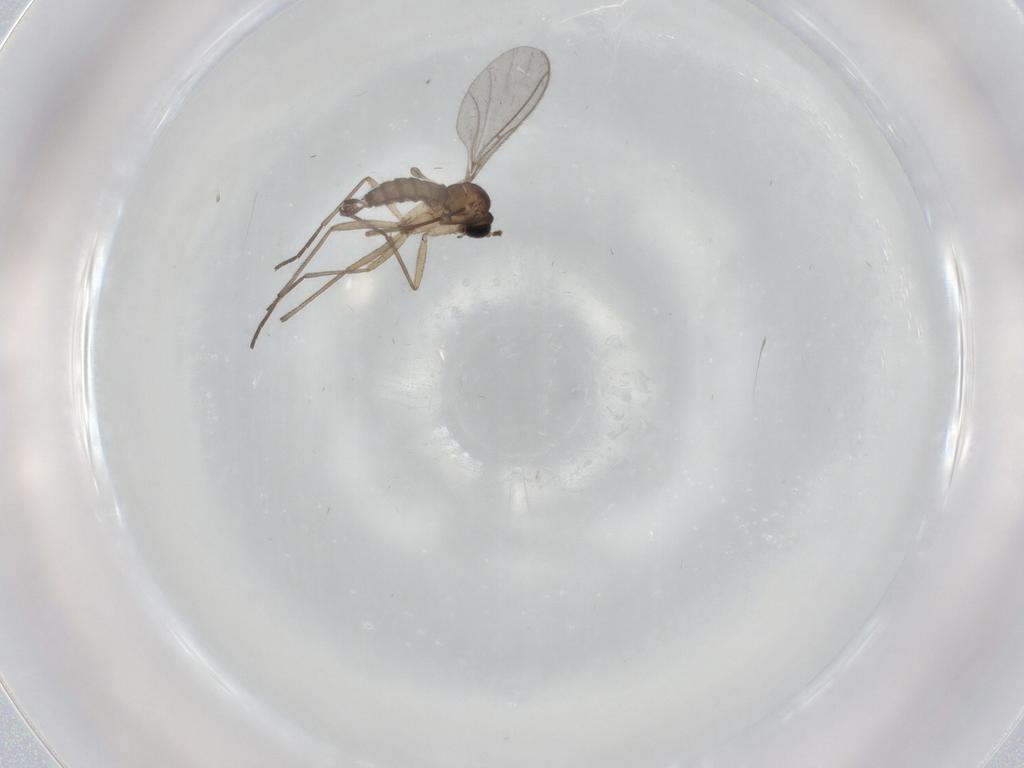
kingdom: Animalia
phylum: Arthropoda
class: Insecta
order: Diptera
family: Sciaridae
